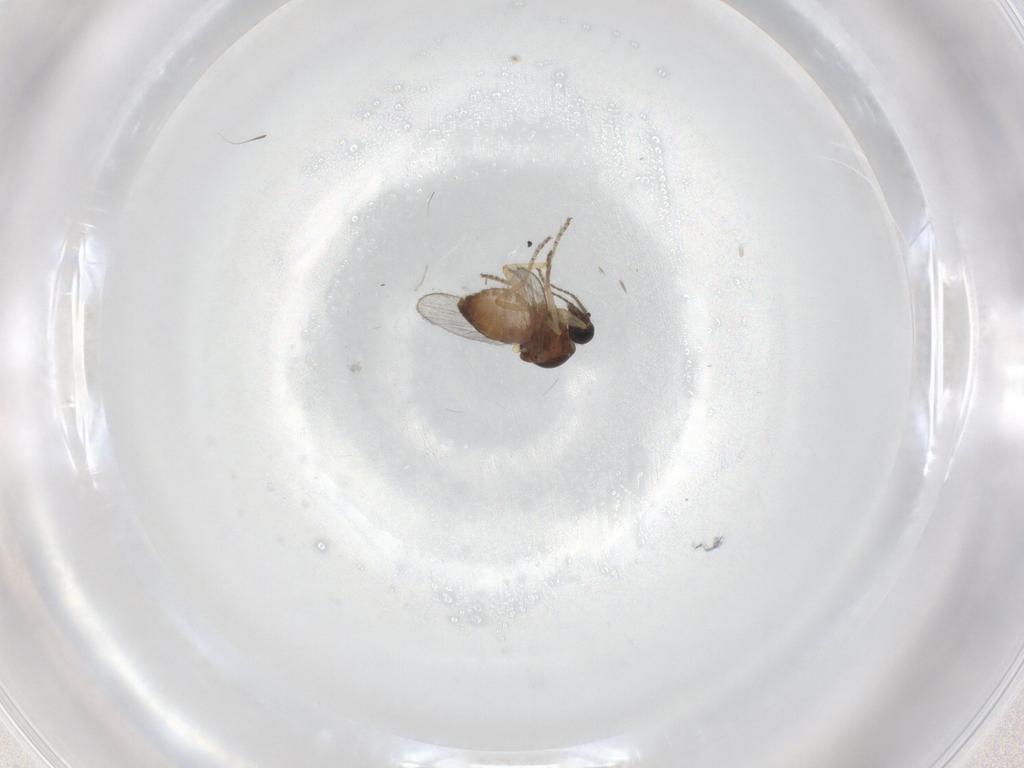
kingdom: Animalia
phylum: Arthropoda
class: Insecta
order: Diptera
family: Ceratopogonidae
